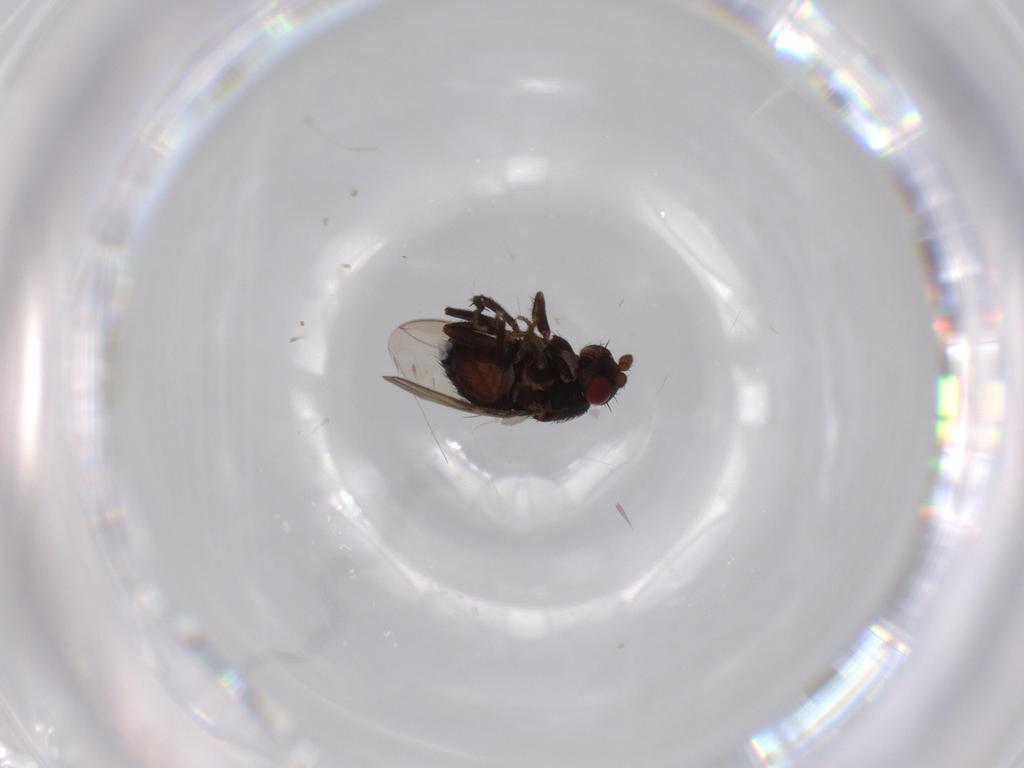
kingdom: Animalia
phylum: Arthropoda
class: Insecta
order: Diptera
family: Sphaeroceridae
